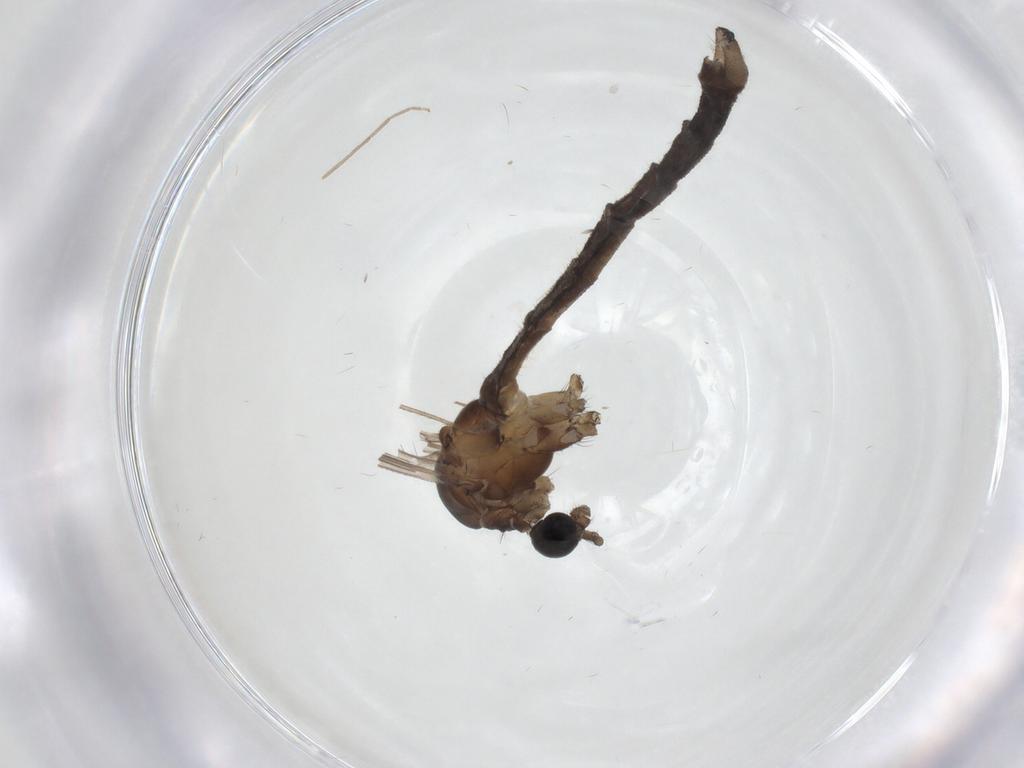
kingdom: Animalia
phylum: Arthropoda
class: Insecta
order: Diptera
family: Limoniidae
